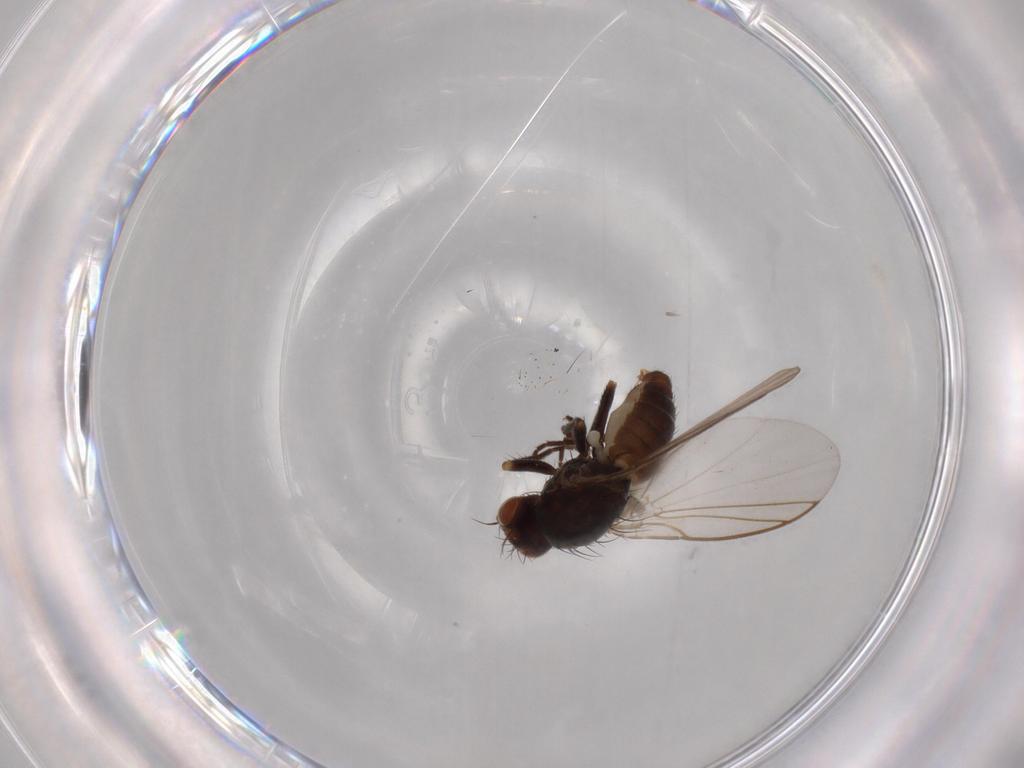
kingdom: Animalia
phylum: Arthropoda
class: Insecta
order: Diptera
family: Agromyzidae
